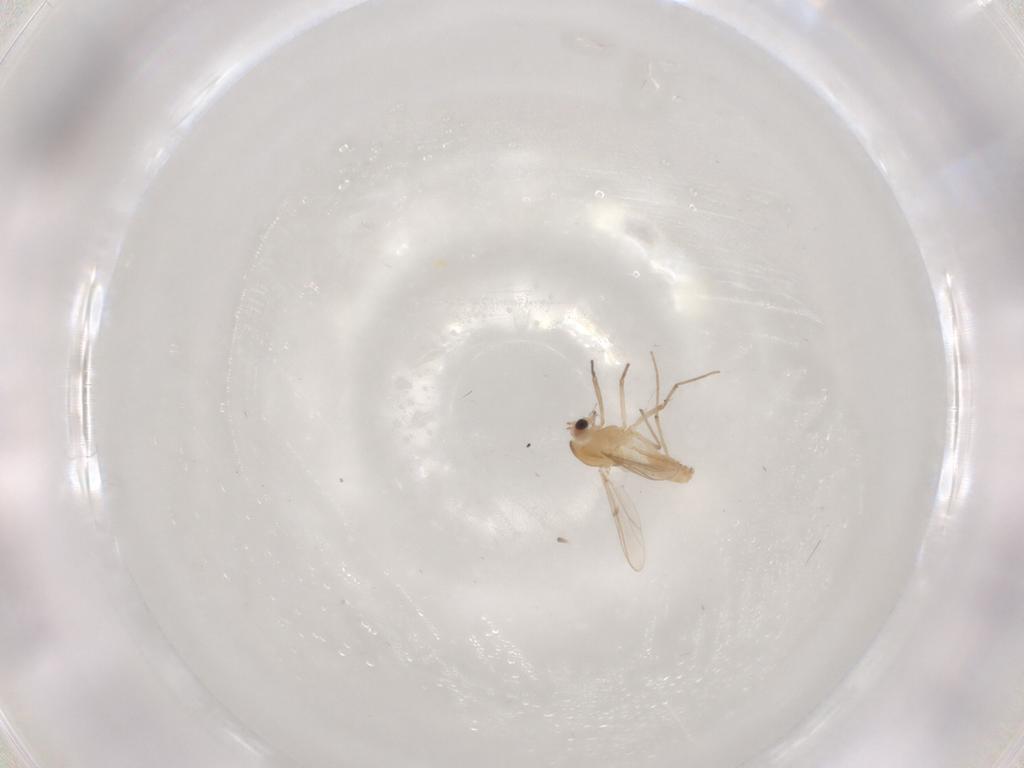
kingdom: Animalia
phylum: Arthropoda
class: Insecta
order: Diptera
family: Chironomidae
